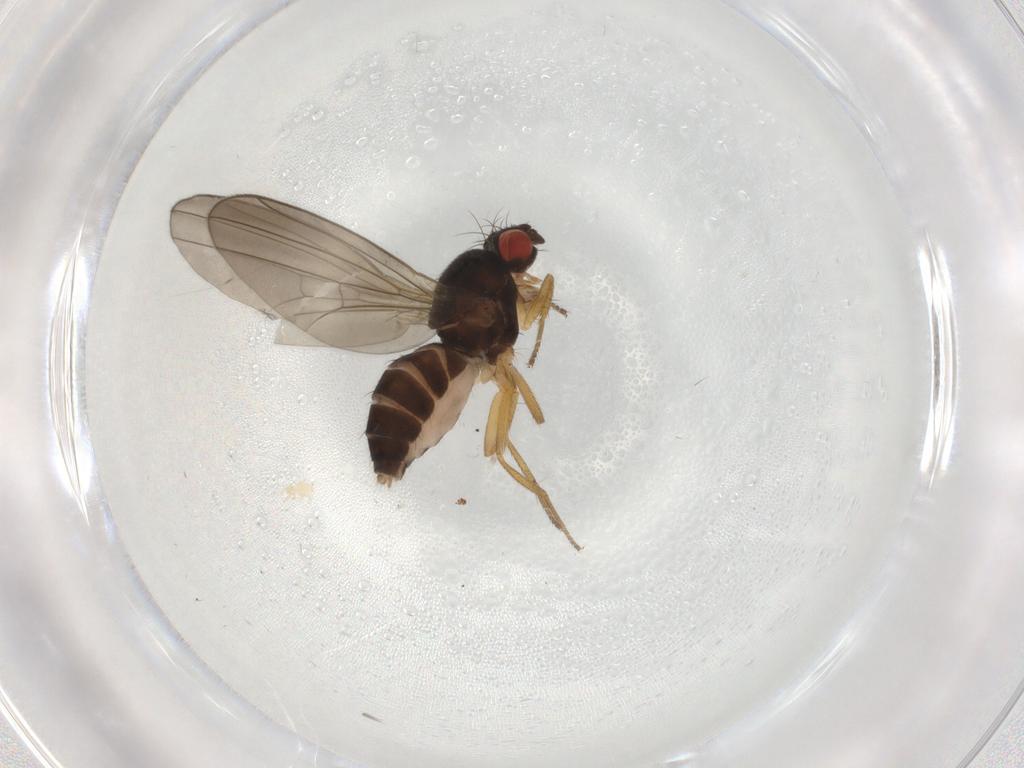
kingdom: Animalia
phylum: Arthropoda
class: Insecta
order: Diptera
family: Drosophilidae
